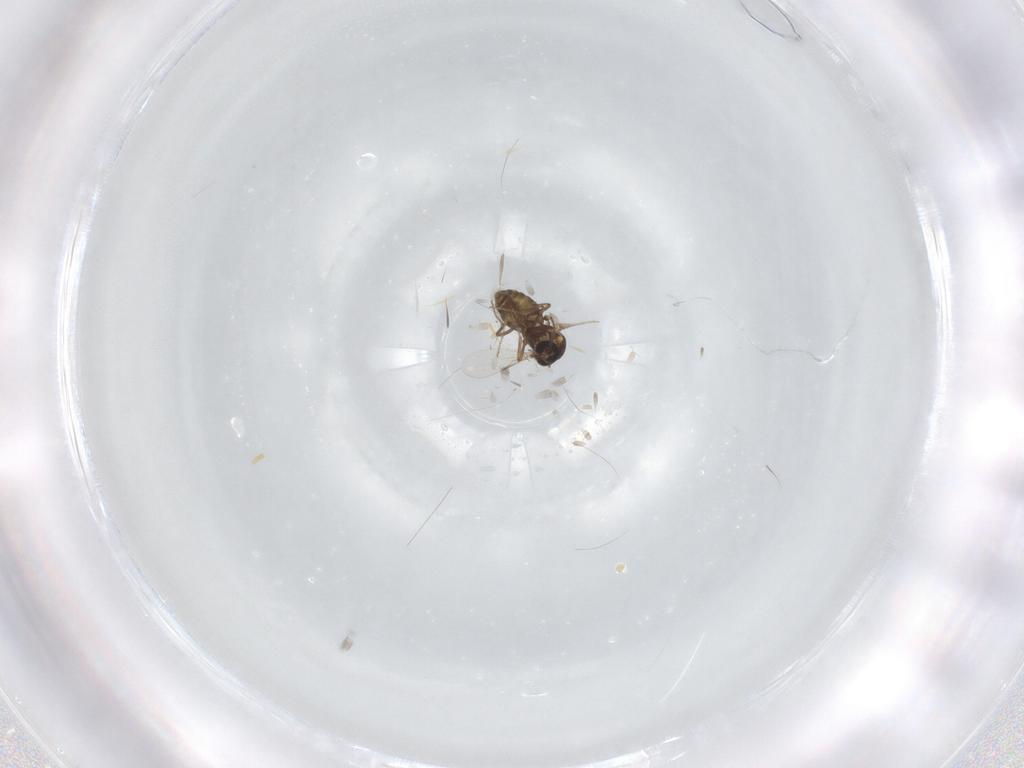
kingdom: Animalia
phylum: Arthropoda
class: Insecta
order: Diptera
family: Ceratopogonidae
